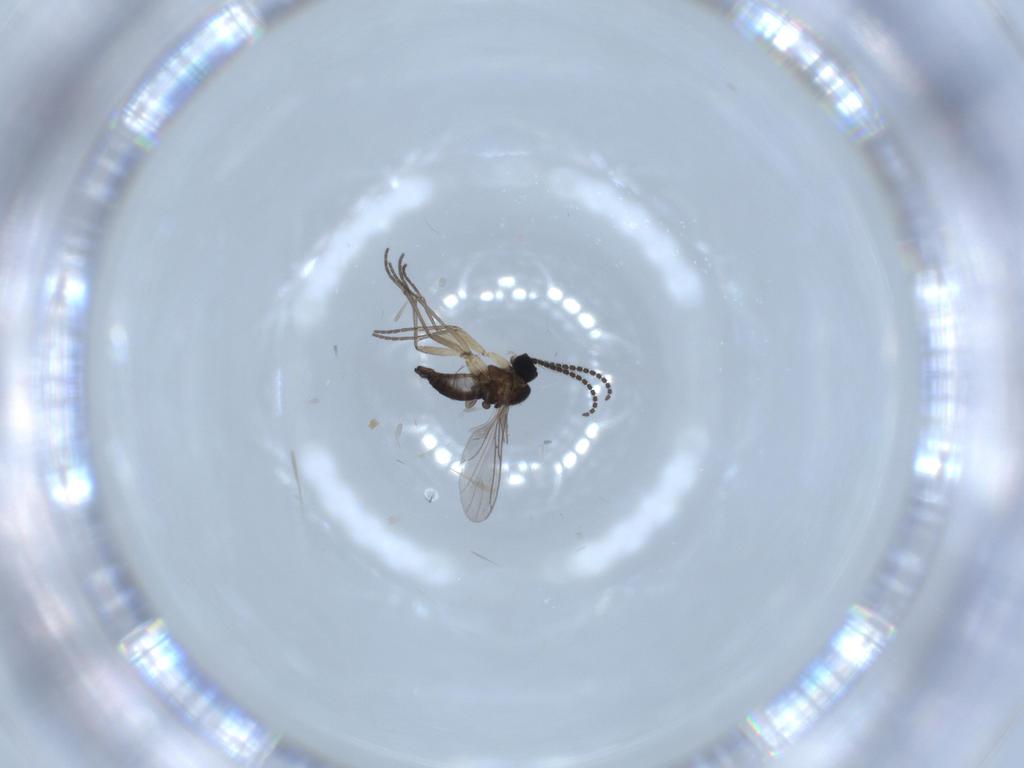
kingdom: Animalia
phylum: Arthropoda
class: Insecta
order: Diptera
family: Sciaridae
